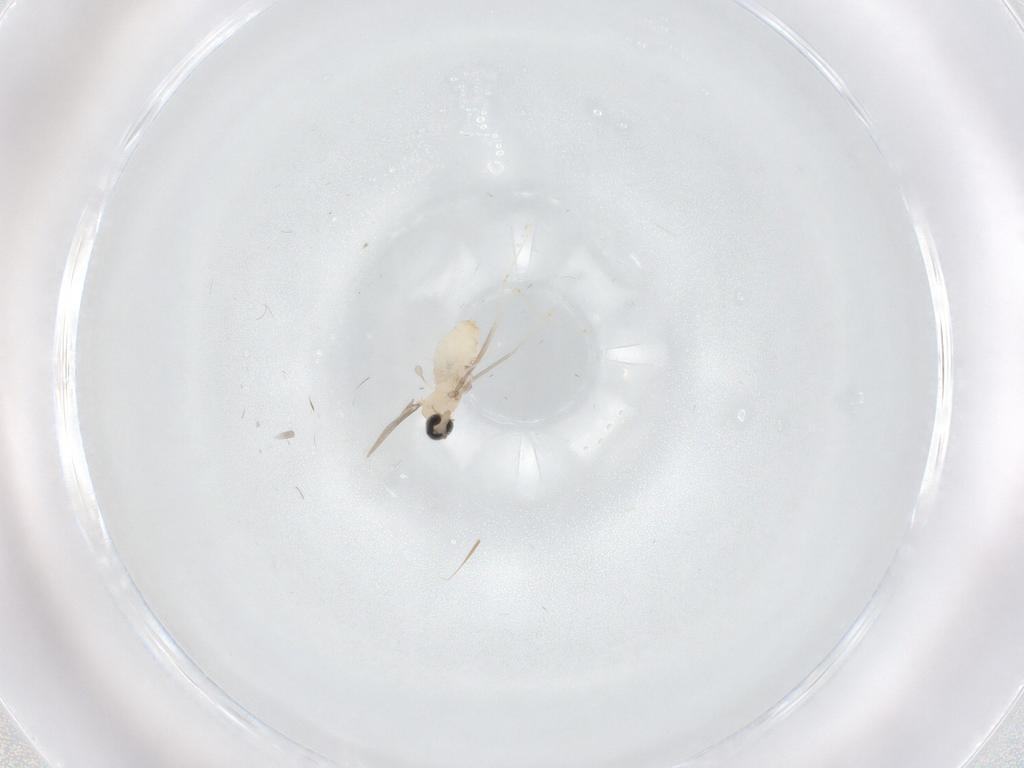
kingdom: Animalia
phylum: Arthropoda
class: Insecta
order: Diptera
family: Cecidomyiidae
